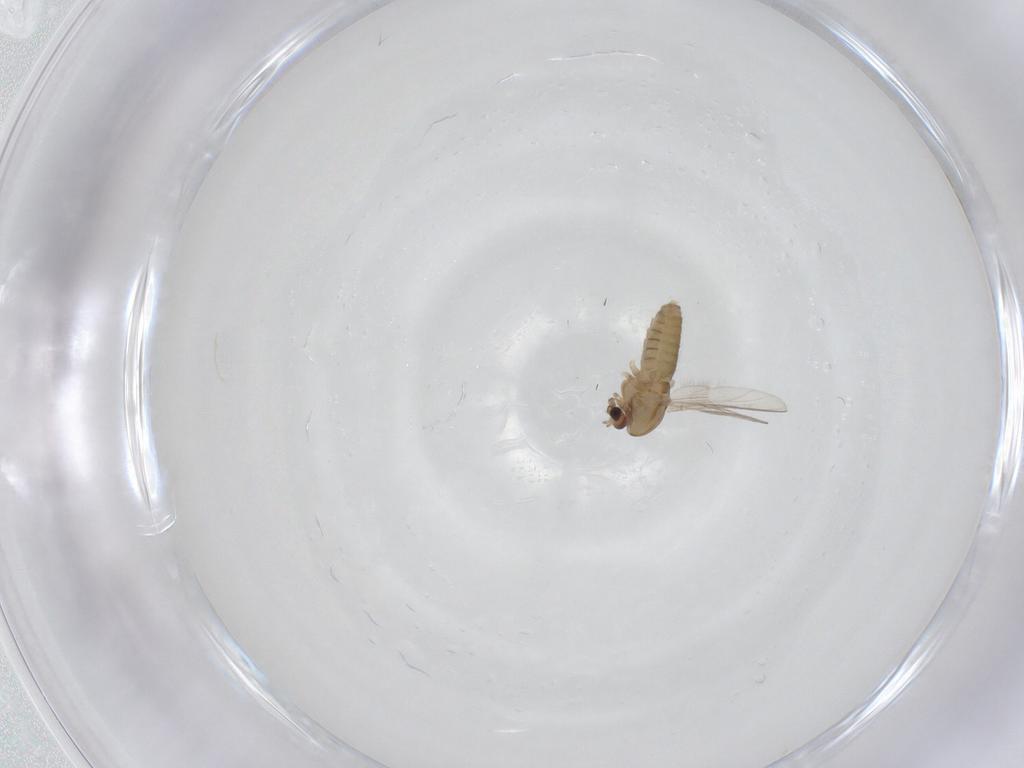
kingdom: Animalia
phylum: Arthropoda
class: Insecta
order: Diptera
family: Chironomidae
